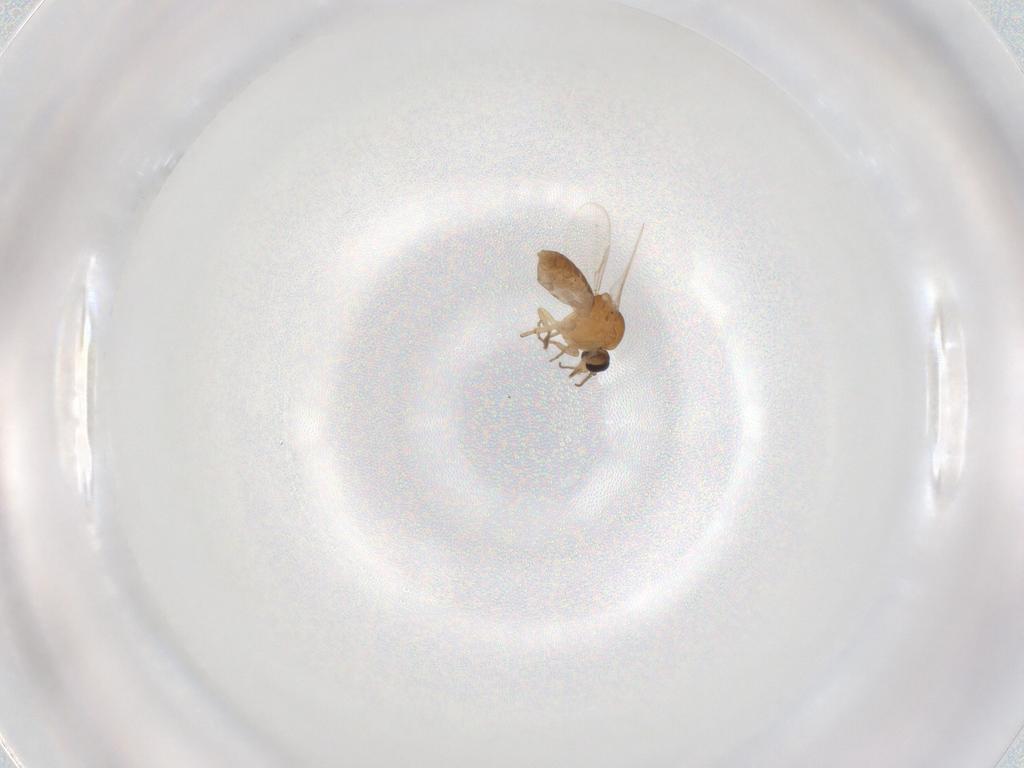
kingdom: Animalia
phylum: Arthropoda
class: Insecta
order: Diptera
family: Ceratopogonidae
